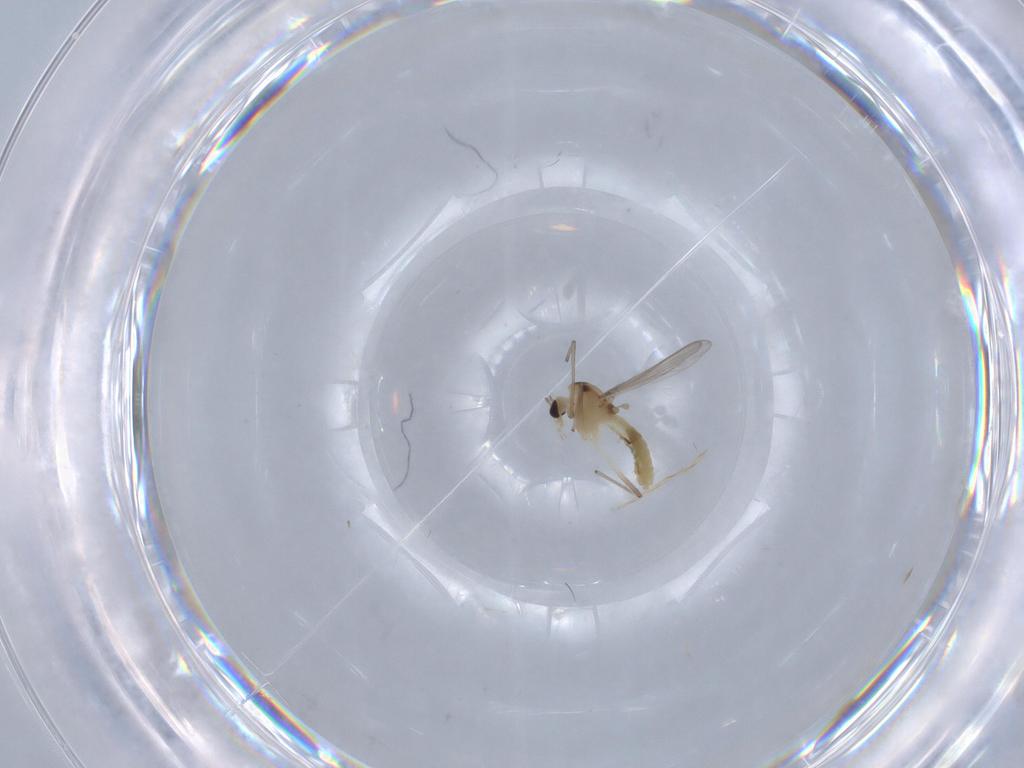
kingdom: Animalia
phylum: Arthropoda
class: Insecta
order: Diptera
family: Chironomidae
